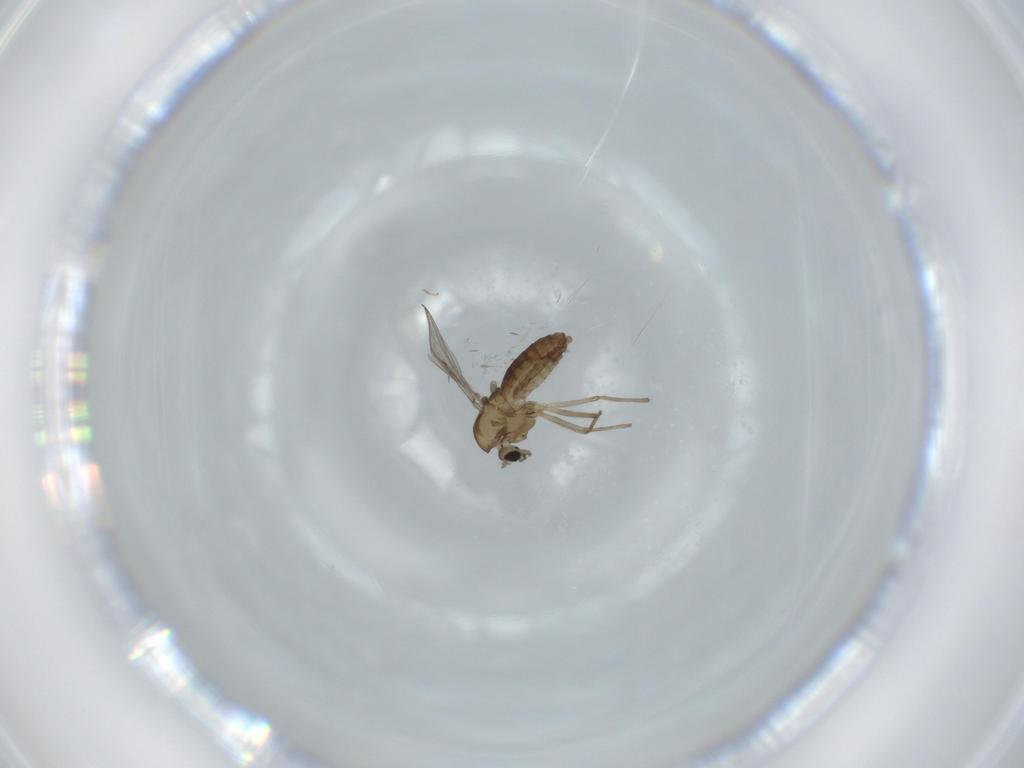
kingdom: Animalia
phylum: Arthropoda
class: Insecta
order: Diptera
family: Chironomidae
